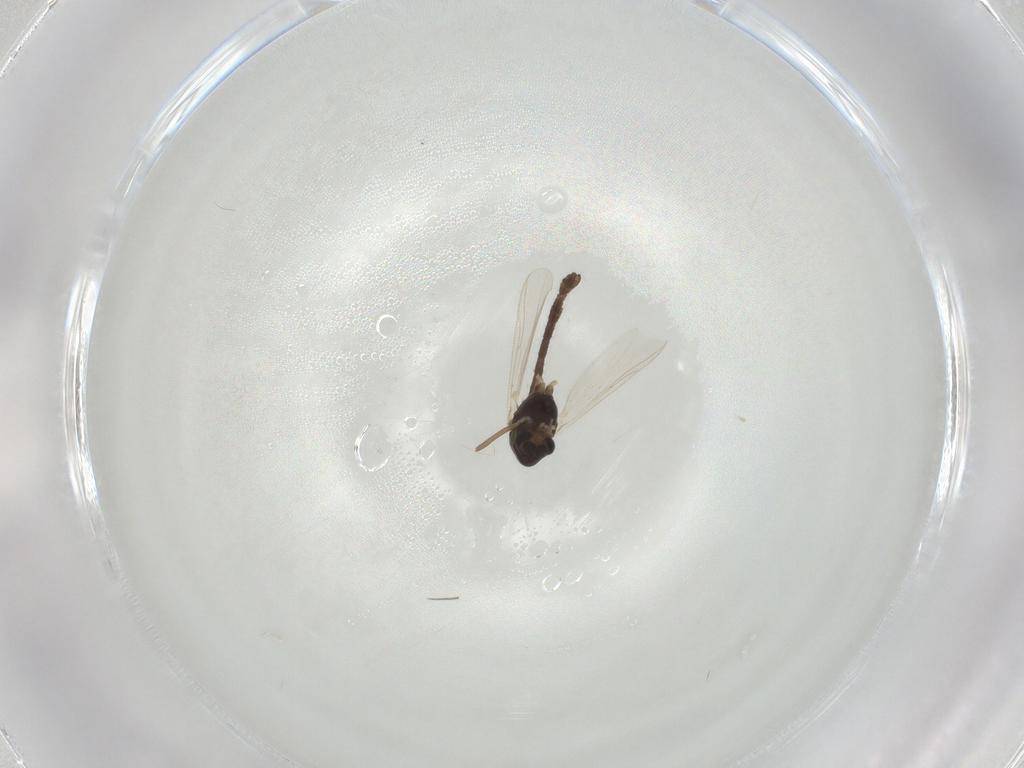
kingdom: Animalia
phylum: Arthropoda
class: Insecta
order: Diptera
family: Chironomidae
